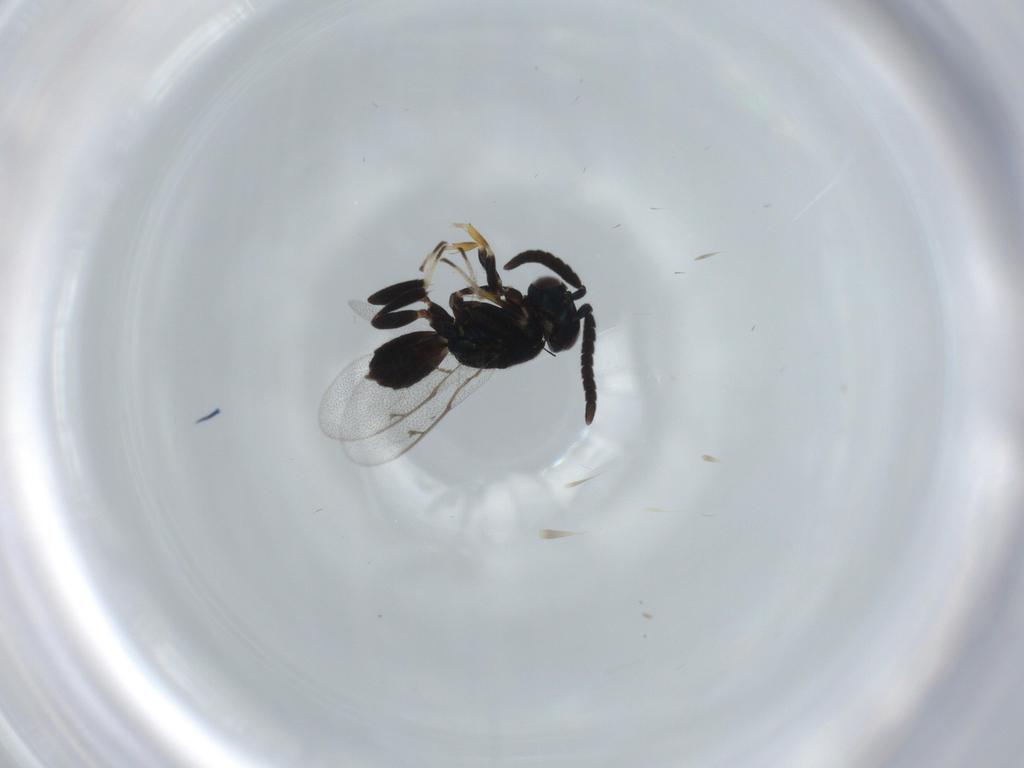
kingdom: Animalia
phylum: Arthropoda
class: Insecta
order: Hymenoptera
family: Eupelmidae
